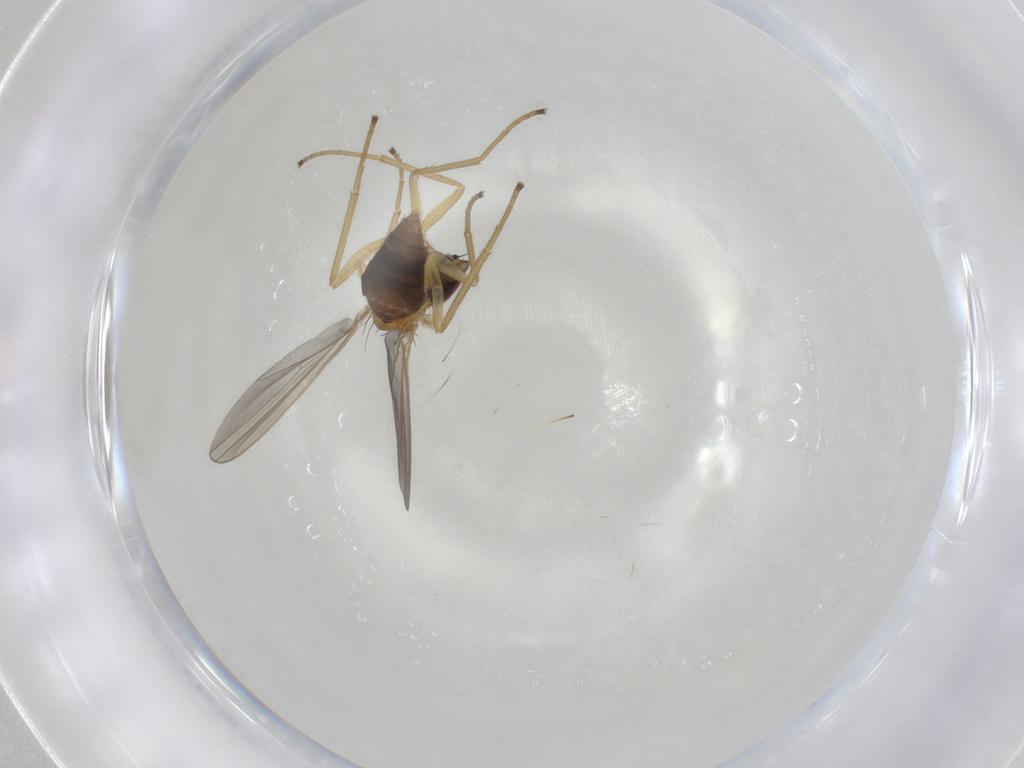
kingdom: Animalia
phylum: Arthropoda
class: Insecta
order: Diptera
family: Dolichopodidae
